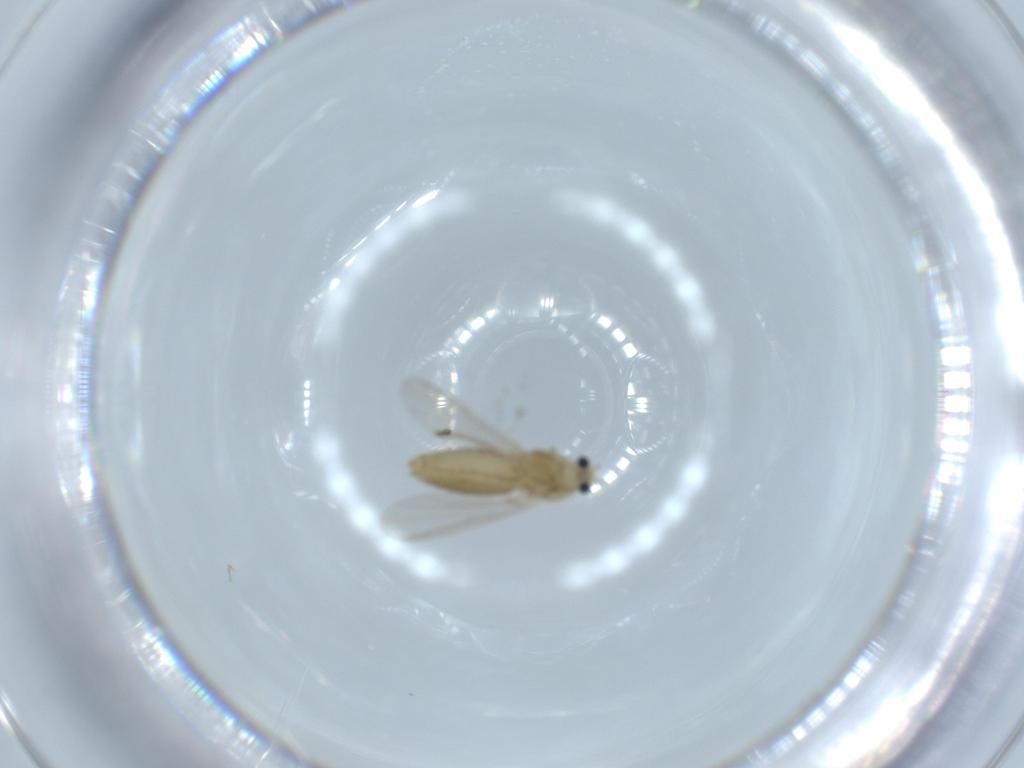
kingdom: Animalia
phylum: Arthropoda
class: Insecta
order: Diptera
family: Chironomidae
